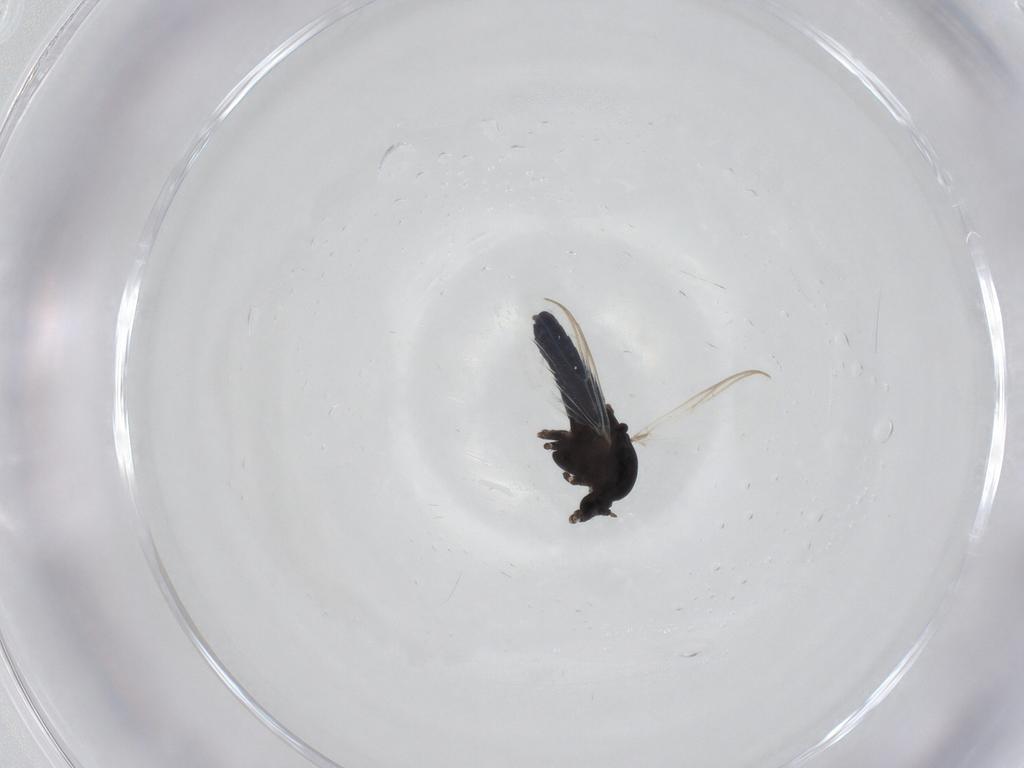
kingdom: Animalia
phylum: Arthropoda
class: Insecta
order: Diptera
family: Chironomidae
